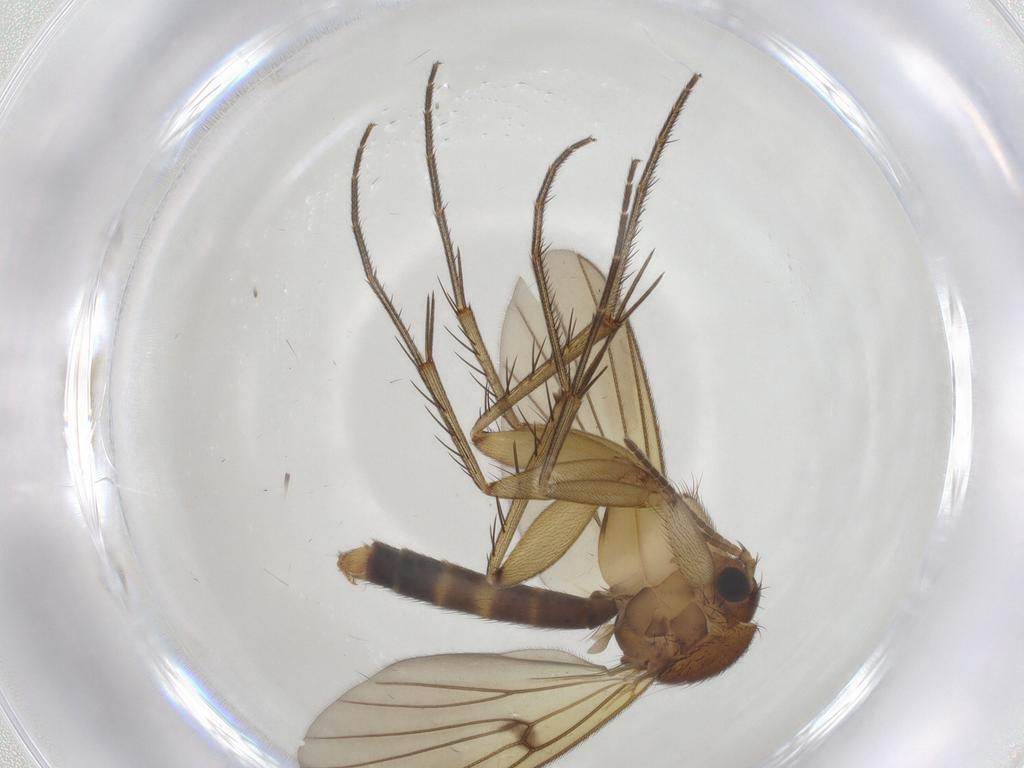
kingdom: Animalia
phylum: Arthropoda
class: Insecta
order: Diptera
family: Mycetophilidae
